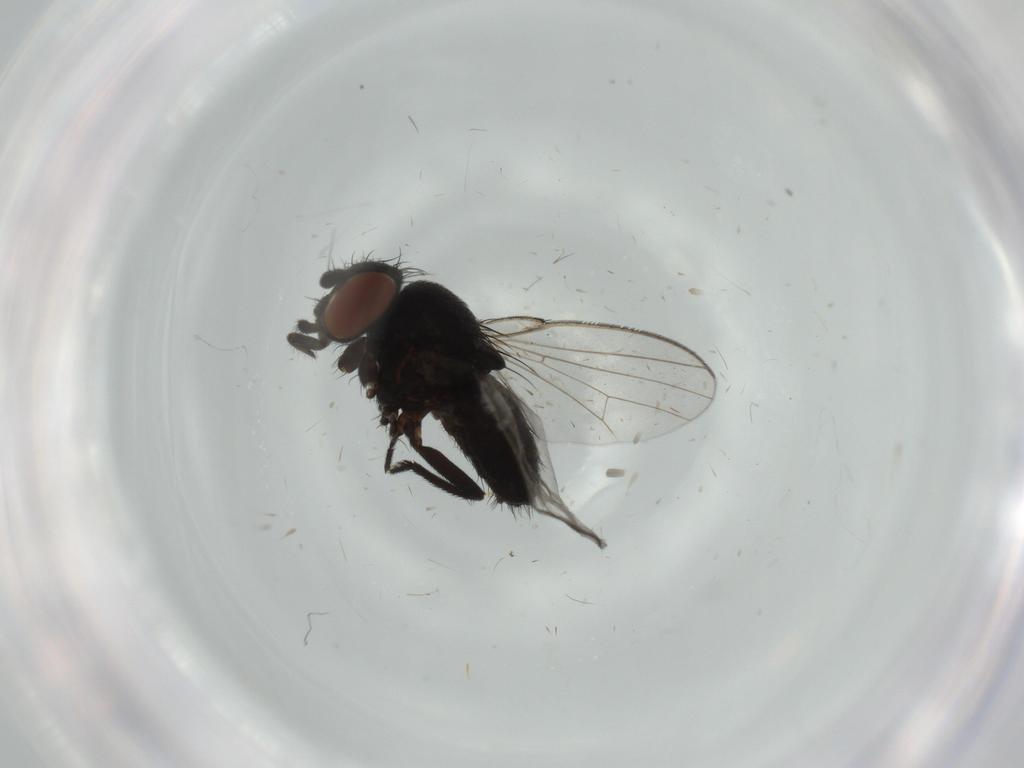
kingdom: Animalia
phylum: Arthropoda
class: Insecta
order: Diptera
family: Milichiidae
